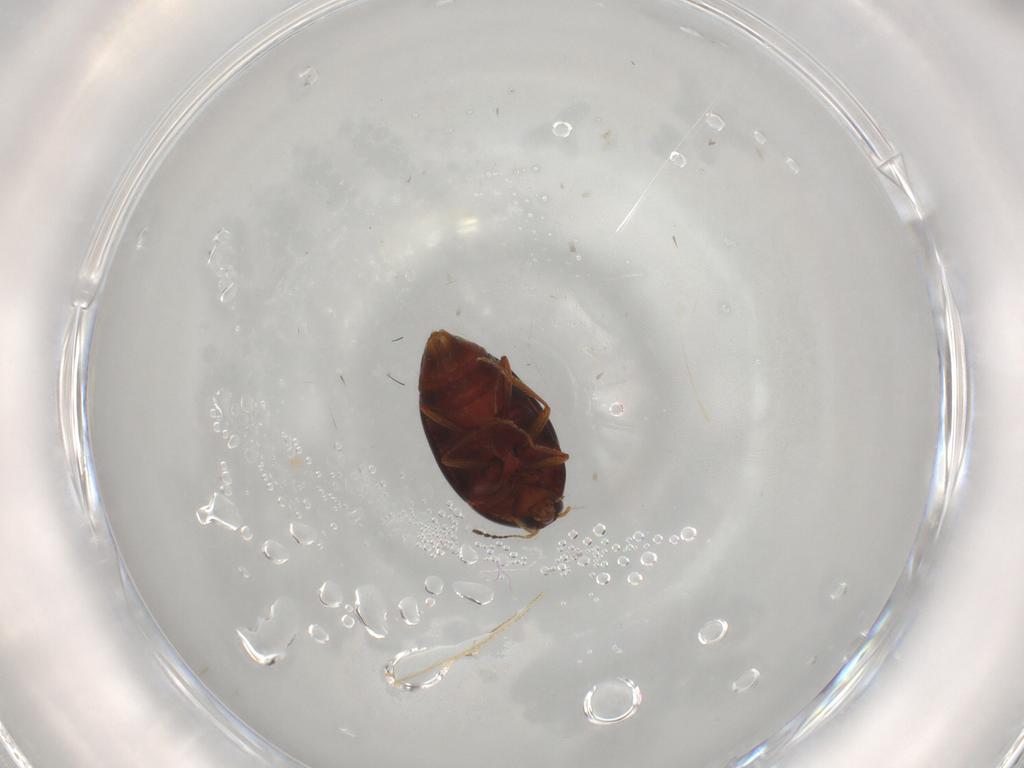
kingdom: Animalia
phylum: Arthropoda
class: Insecta
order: Coleoptera
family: Staphylinidae
